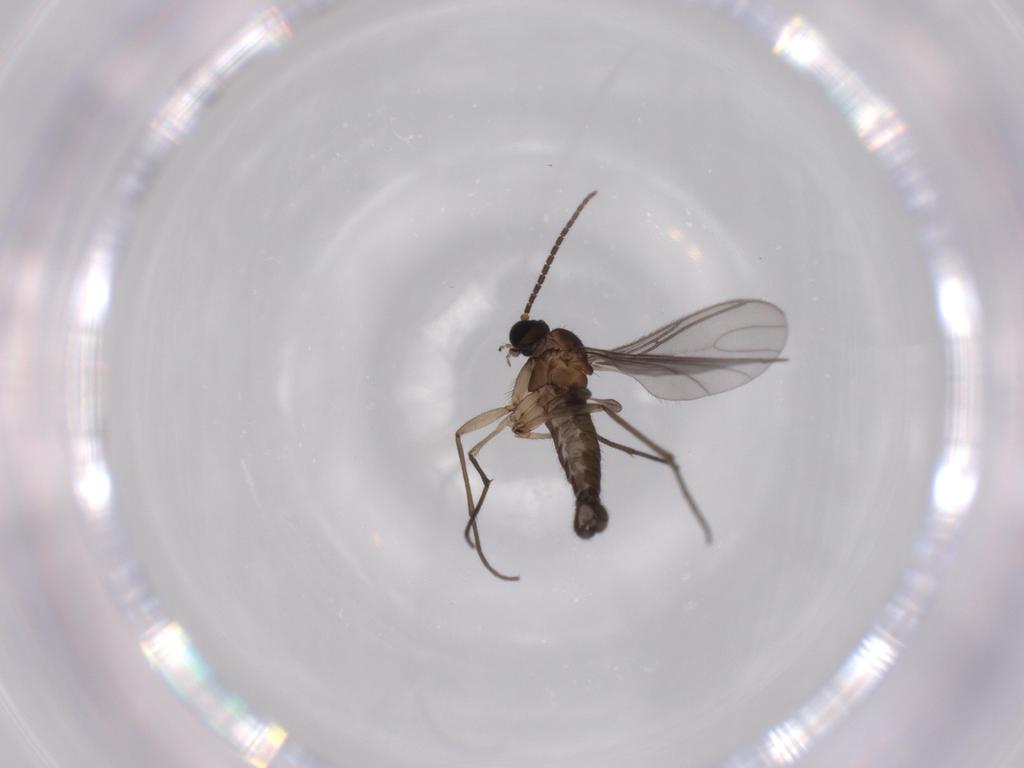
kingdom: Animalia
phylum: Arthropoda
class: Insecta
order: Diptera
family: Sciaridae
